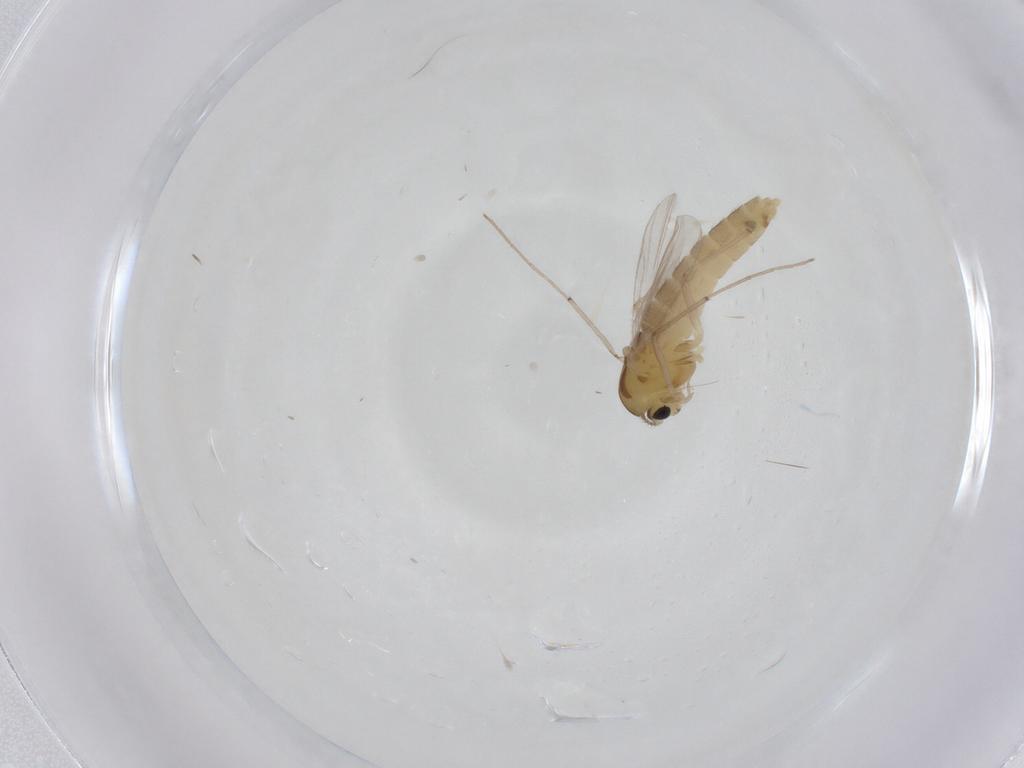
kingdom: Animalia
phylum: Arthropoda
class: Insecta
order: Diptera
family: Chironomidae
